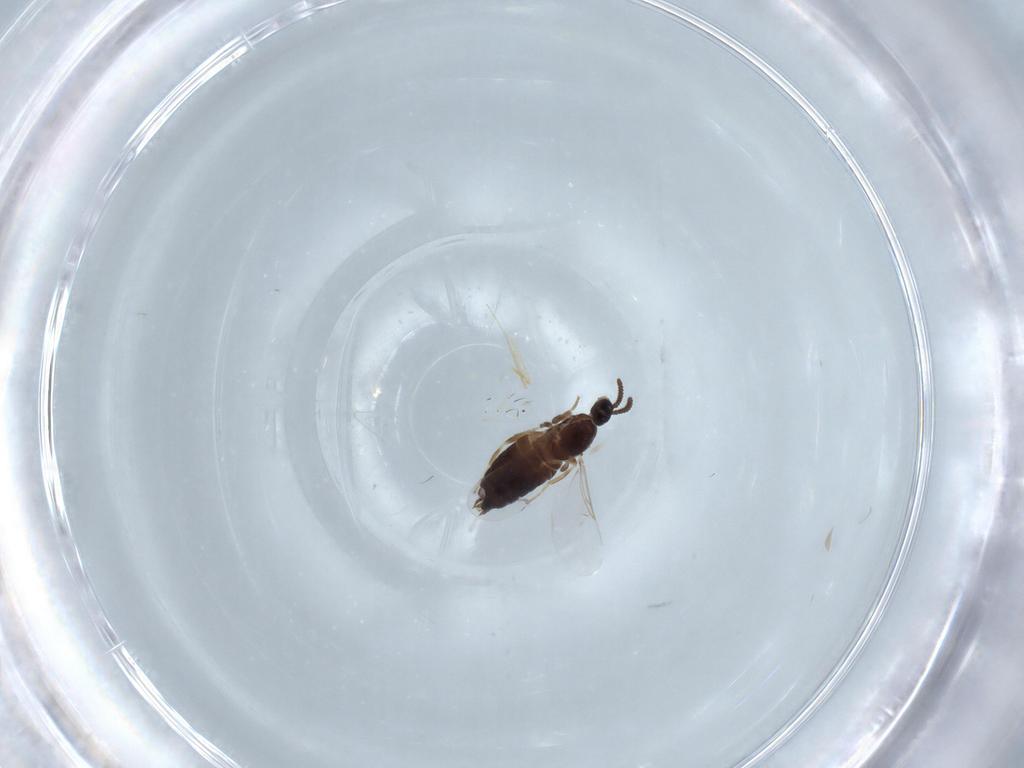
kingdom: Animalia
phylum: Arthropoda
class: Insecta
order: Diptera
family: Scatopsidae
